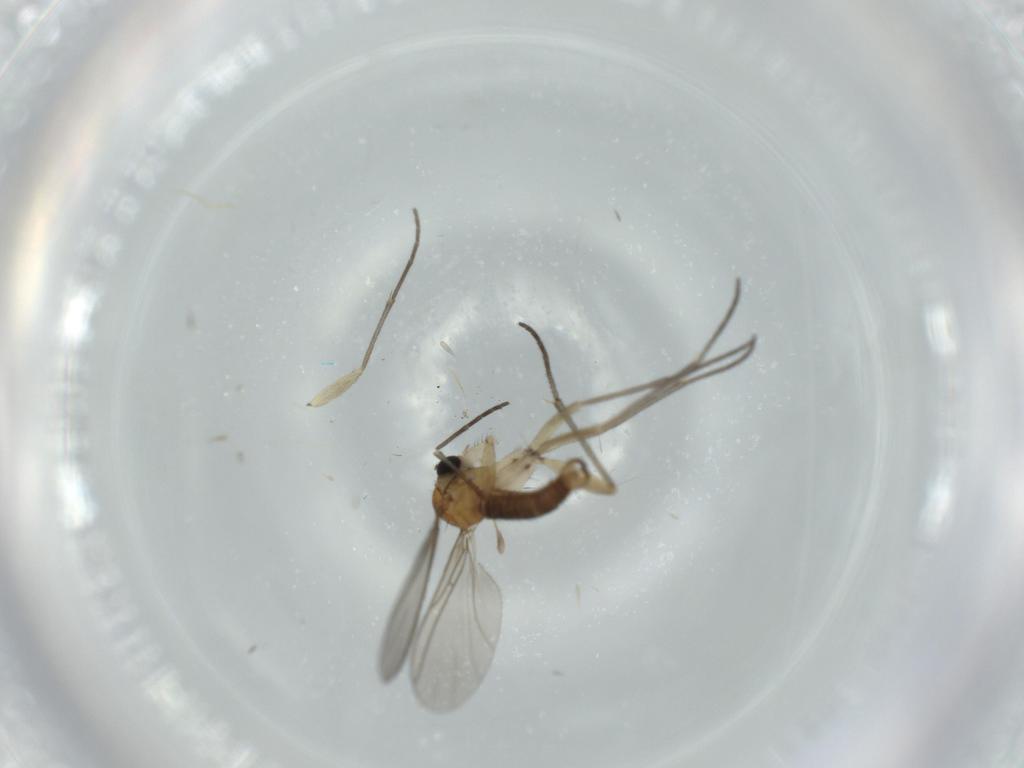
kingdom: Animalia
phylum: Arthropoda
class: Insecta
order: Diptera
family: Sciaridae
